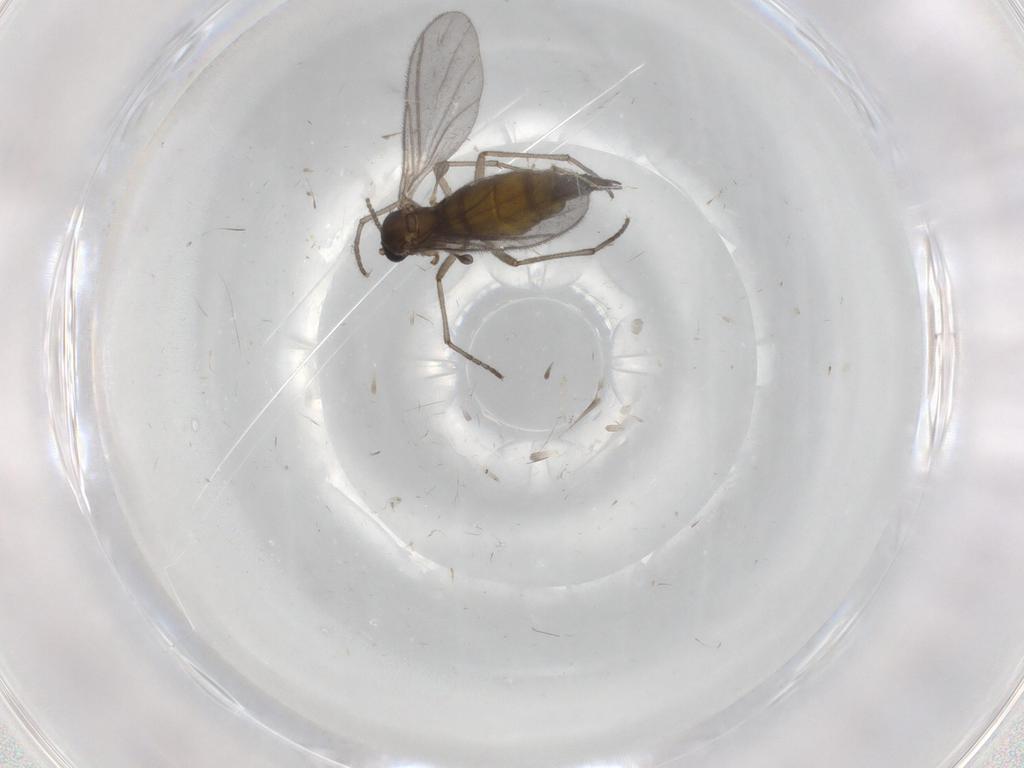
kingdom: Animalia
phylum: Arthropoda
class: Insecta
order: Diptera
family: Sciaridae
